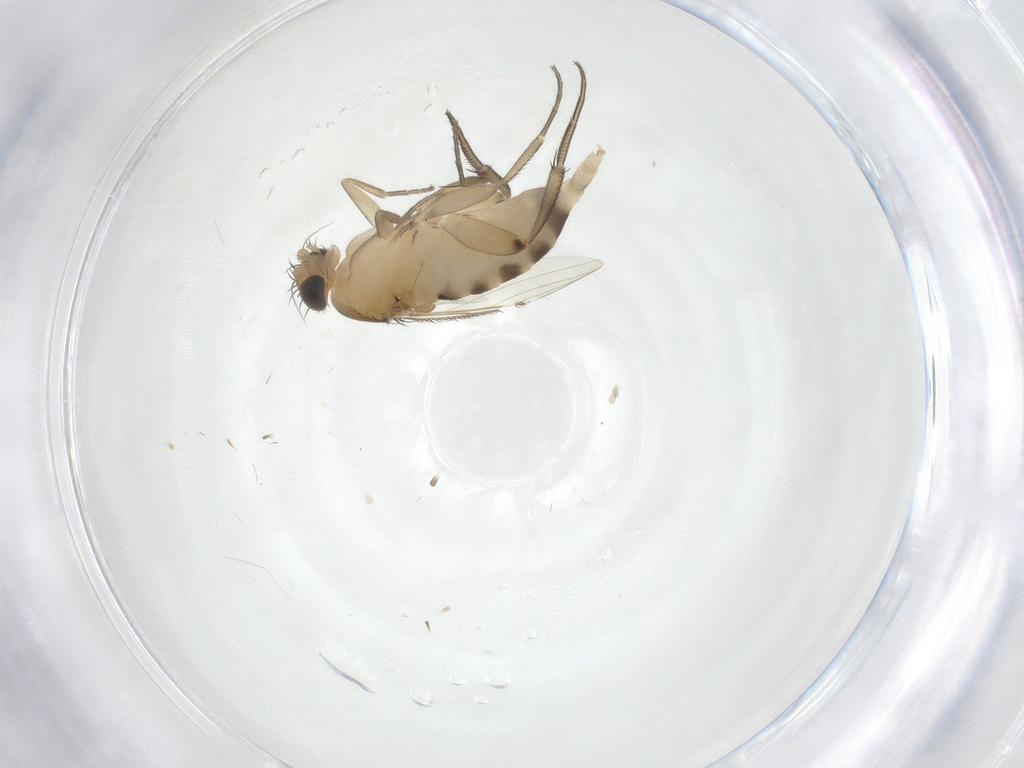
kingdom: Animalia
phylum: Arthropoda
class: Insecta
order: Diptera
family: Phoridae
